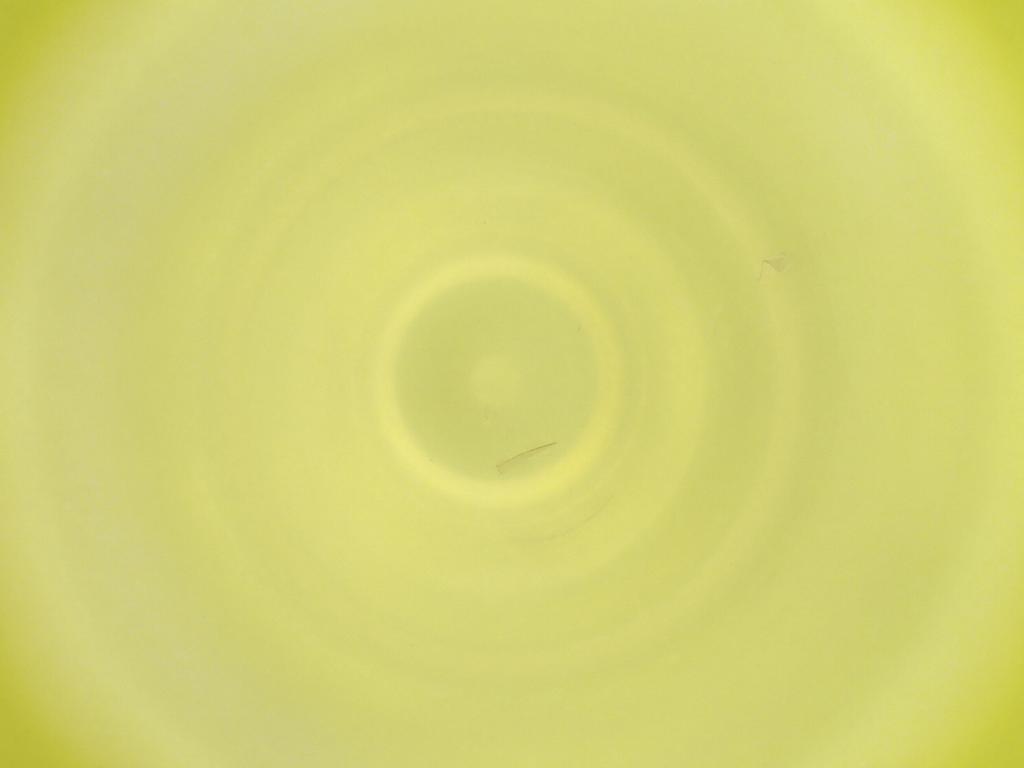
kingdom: Animalia
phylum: Arthropoda
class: Insecta
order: Diptera
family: Cecidomyiidae
